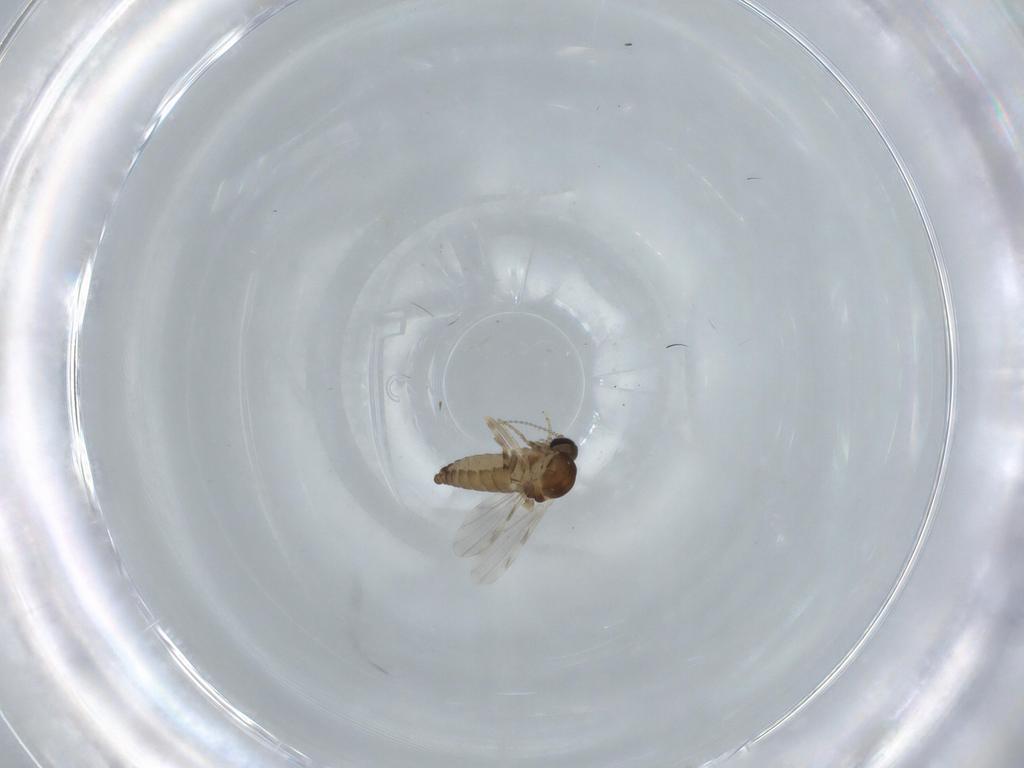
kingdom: Animalia
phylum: Arthropoda
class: Insecta
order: Diptera
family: Ceratopogonidae
